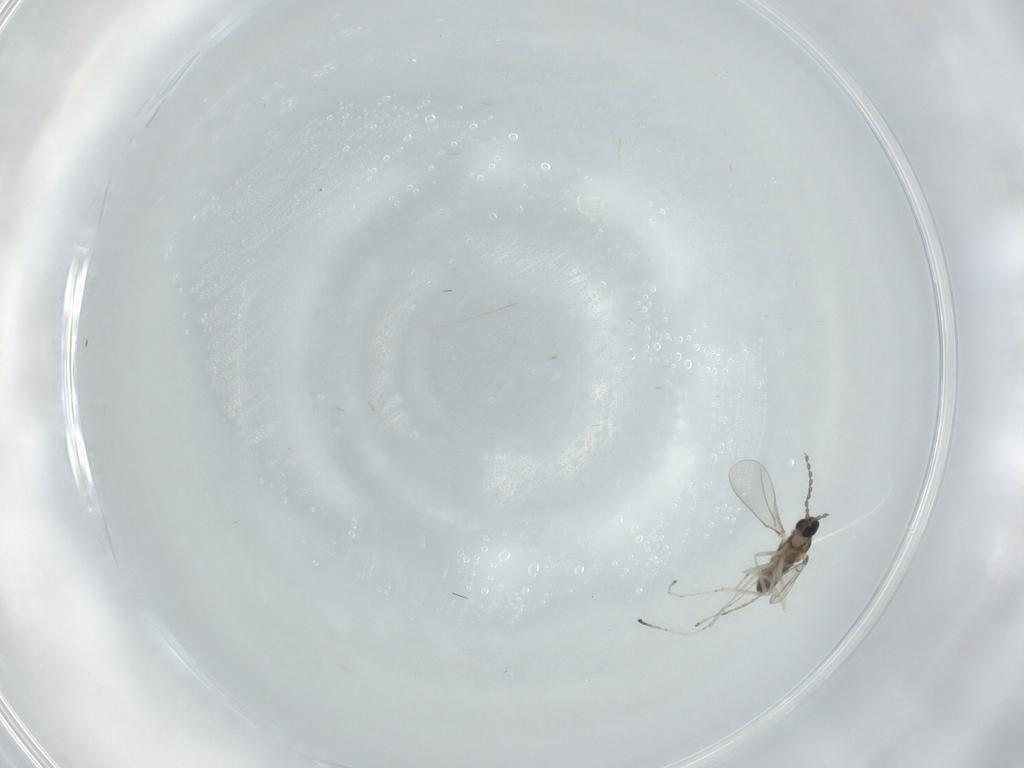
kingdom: Animalia
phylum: Arthropoda
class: Insecta
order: Diptera
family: Cecidomyiidae
